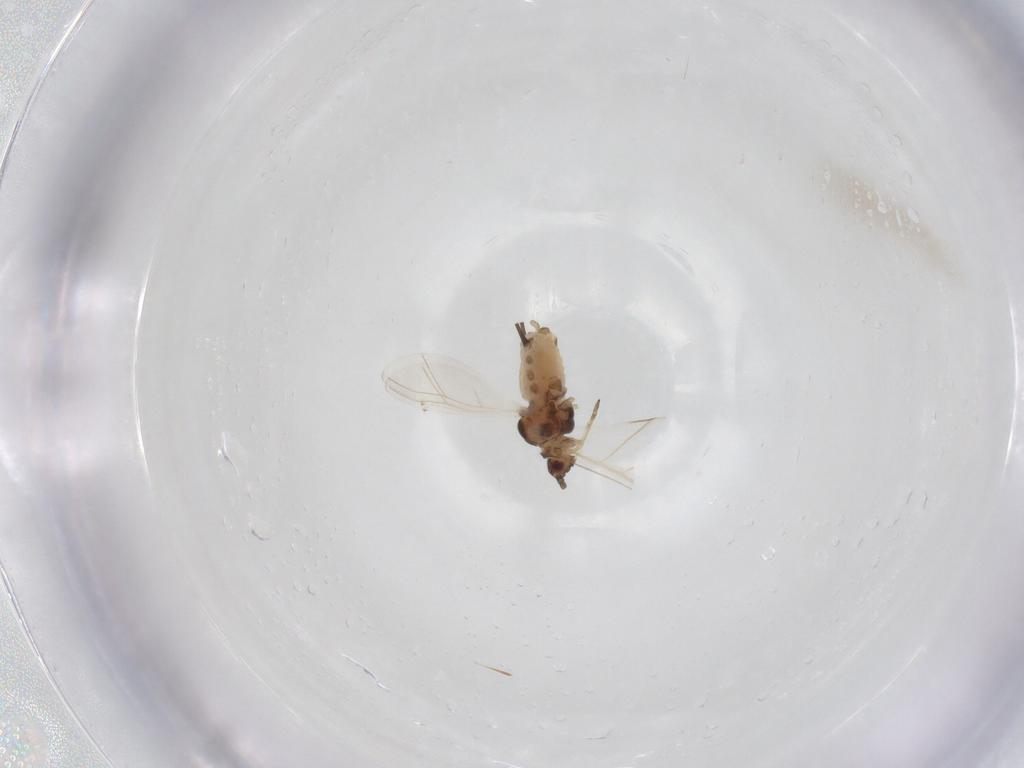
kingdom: Animalia
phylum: Arthropoda
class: Insecta
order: Hemiptera
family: Aphididae
